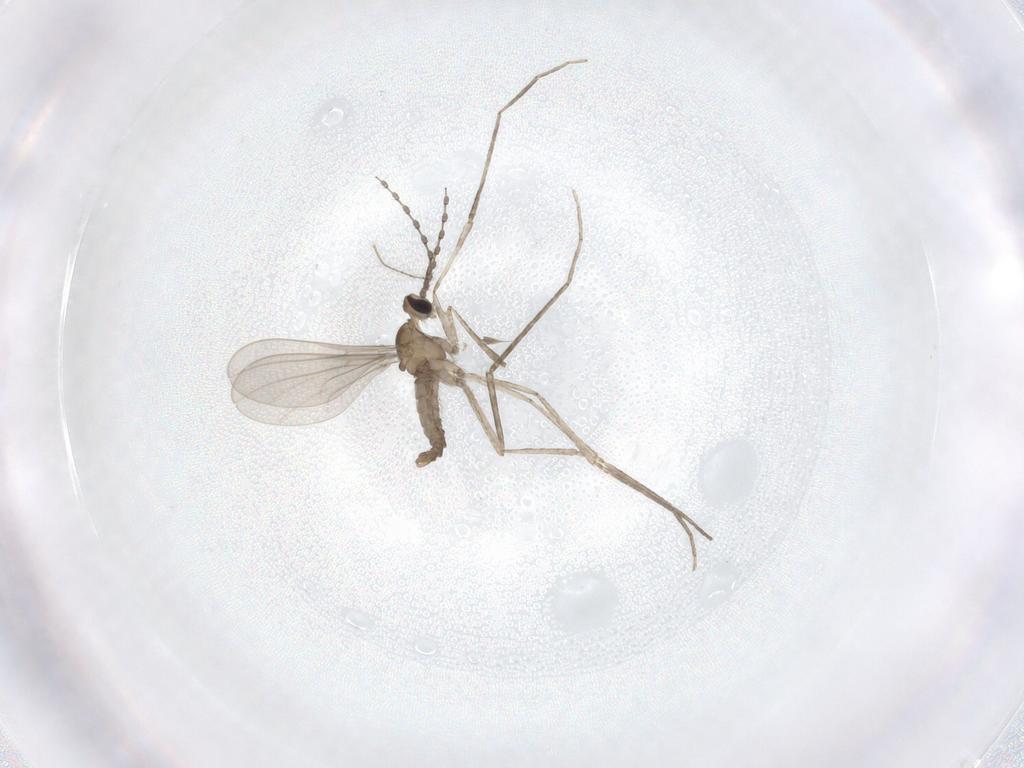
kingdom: Animalia
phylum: Arthropoda
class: Insecta
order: Diptera
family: Ceratopogonidae
